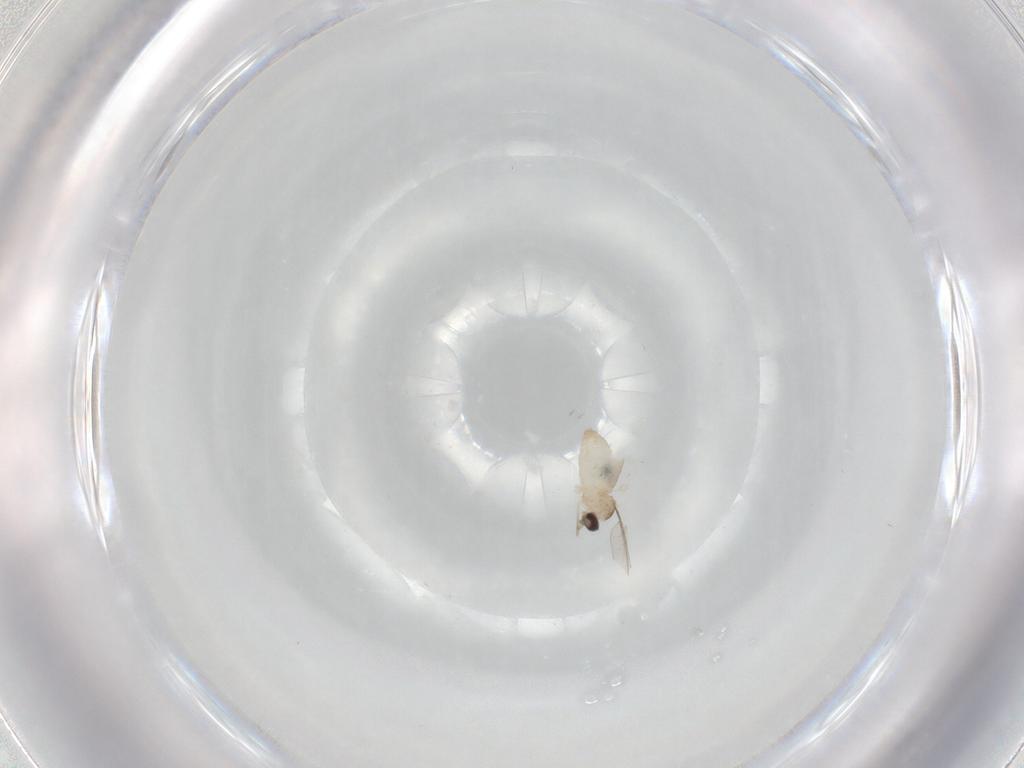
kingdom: Animalia
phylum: Arthropoda
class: Insecta
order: Diptera
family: Cecidomyiidae
